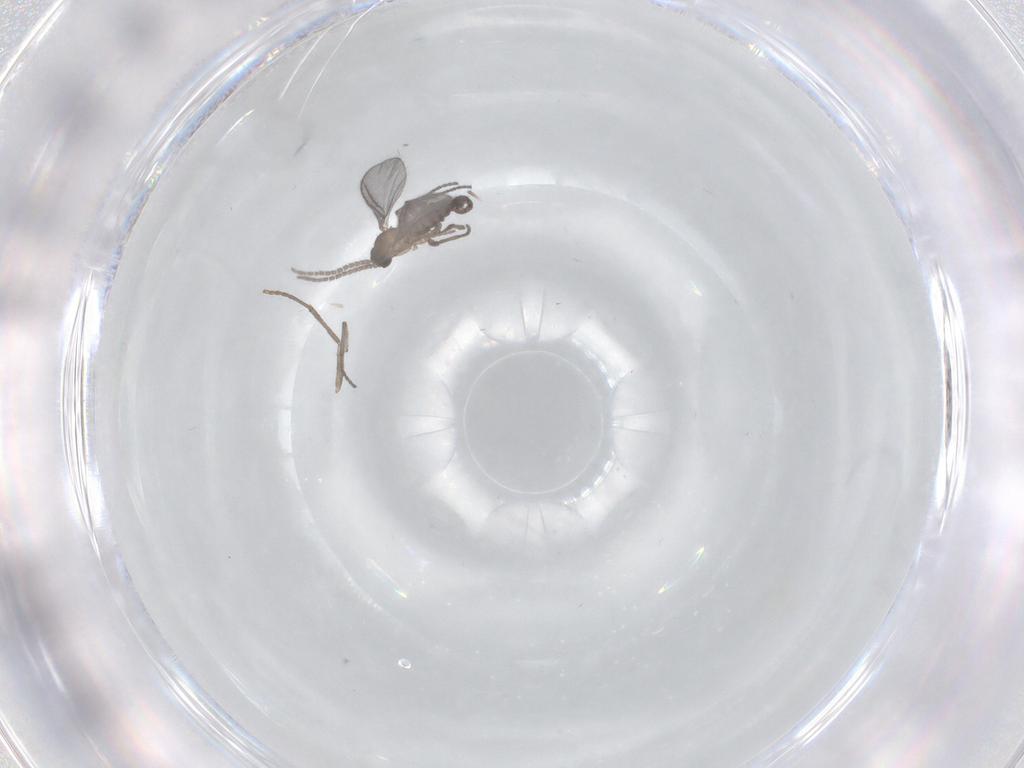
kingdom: Animalia
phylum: Arthropoda
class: Insecta
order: Diptera
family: Sciaridae
